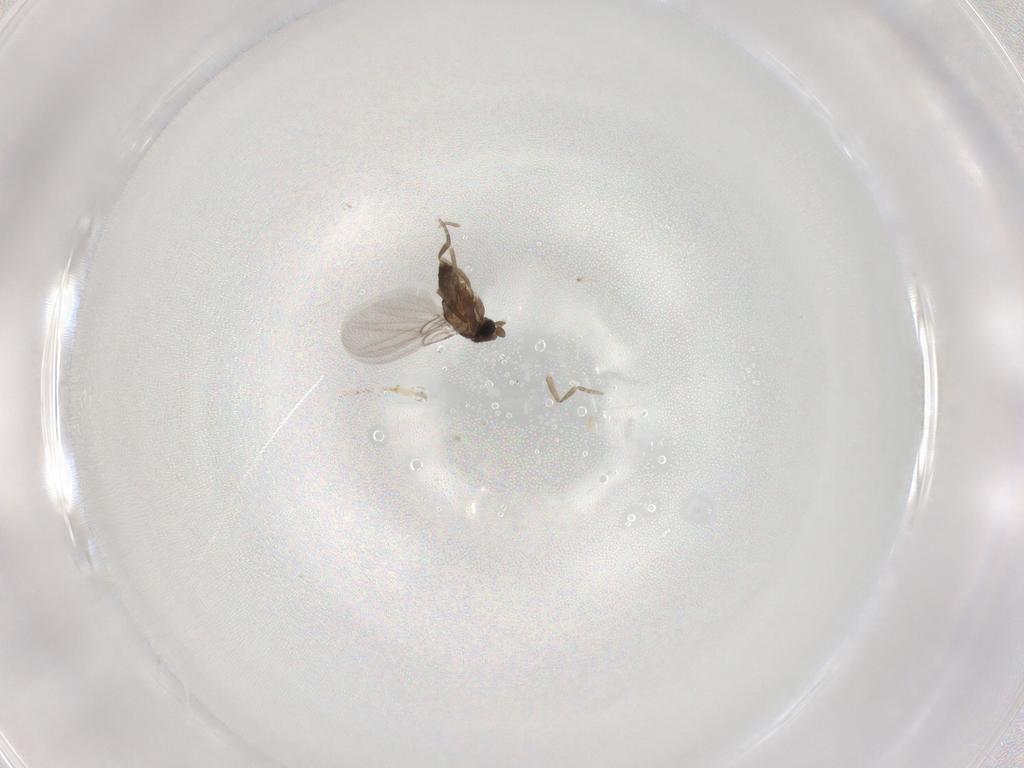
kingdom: Animalia
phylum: Arthropoda
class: Insecta
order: Diptera
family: Phoridae
